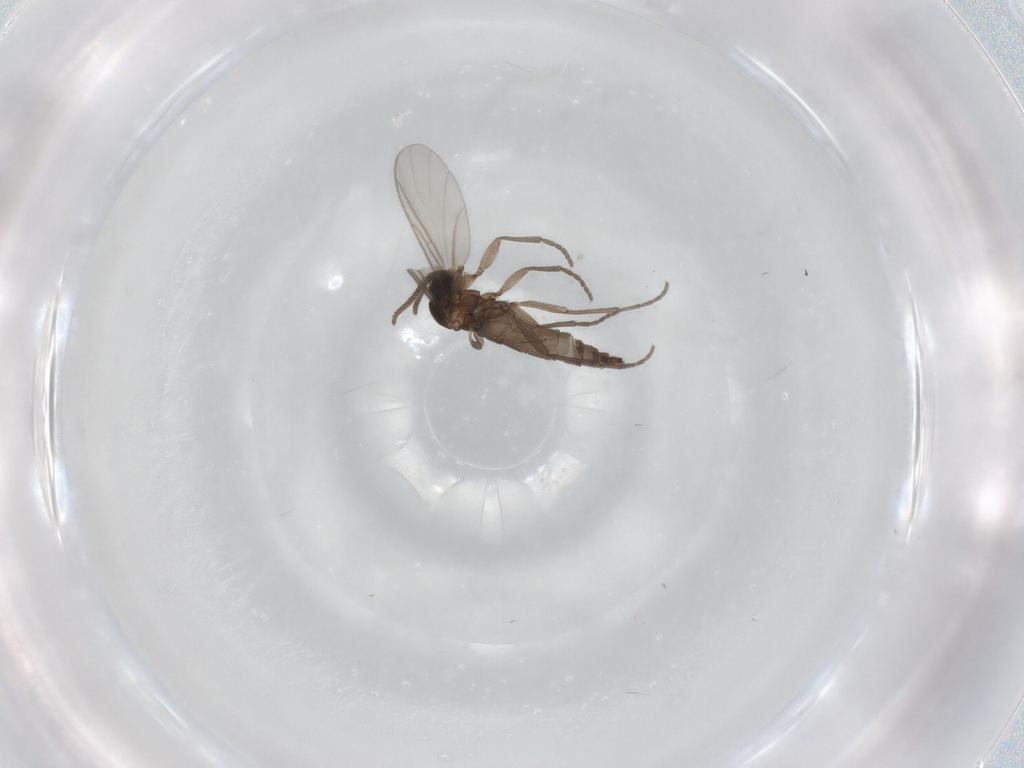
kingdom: Animalia
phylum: Arthropoda
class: Insecta
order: Diptera
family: Sciaridae
